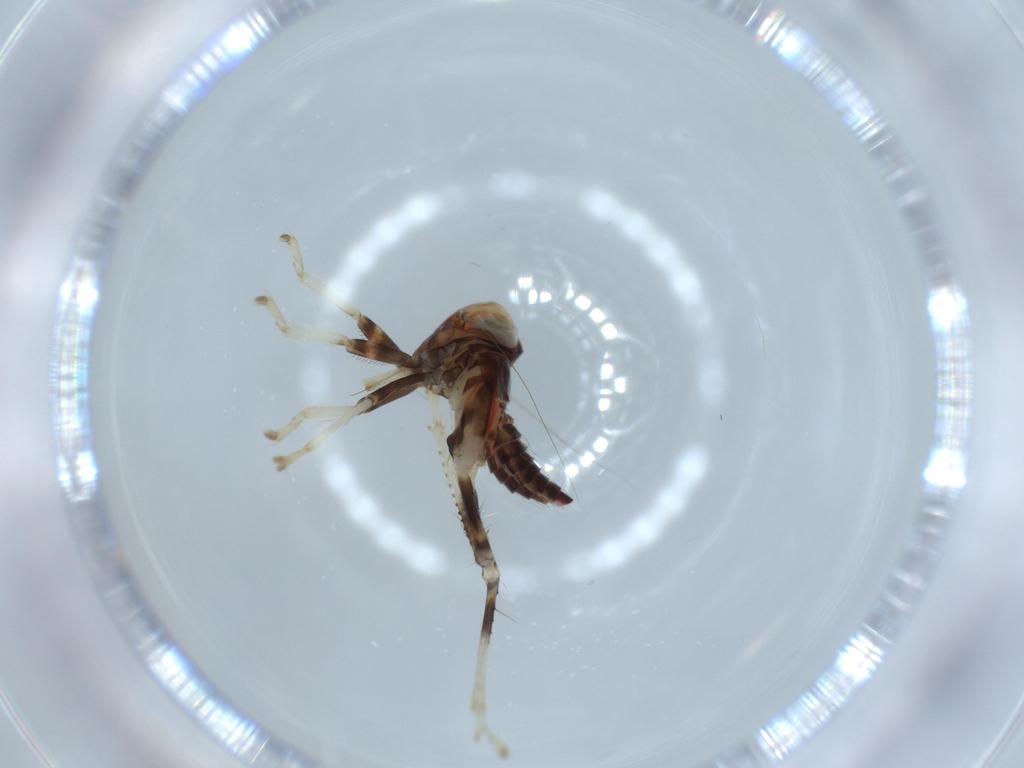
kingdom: Animalia
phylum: Arthropoda
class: Insecta
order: Hemiptera
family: Cicadellidae
